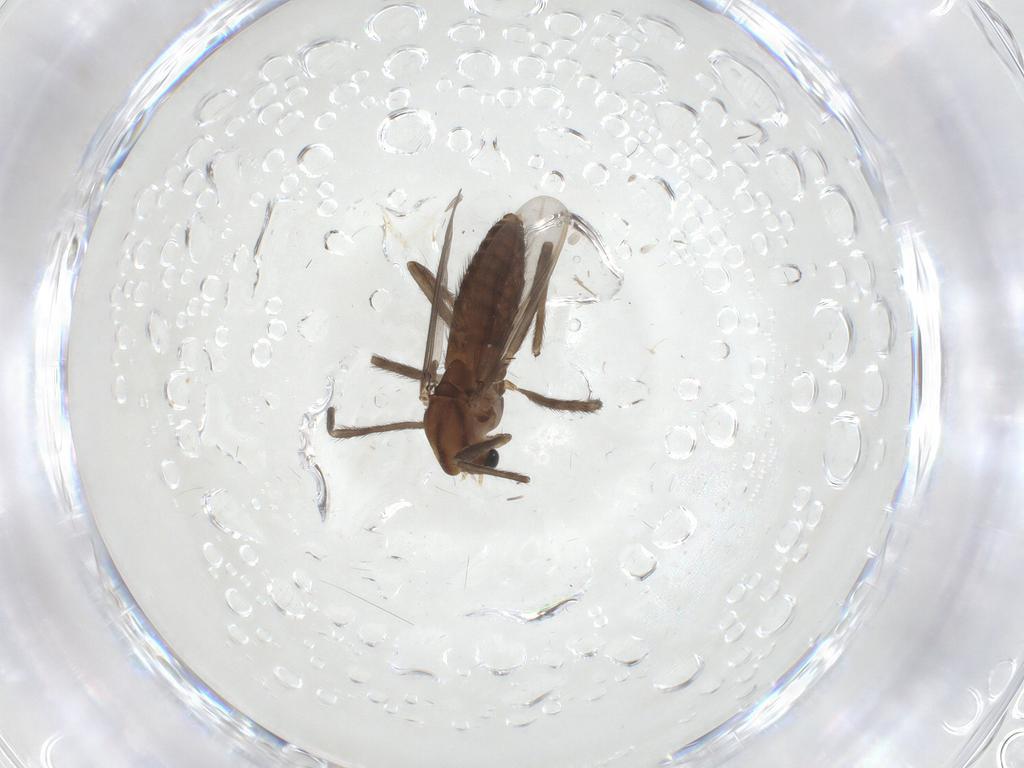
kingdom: Animalia
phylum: Arthropoda
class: Insecta
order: Diptera
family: Chironomidae
